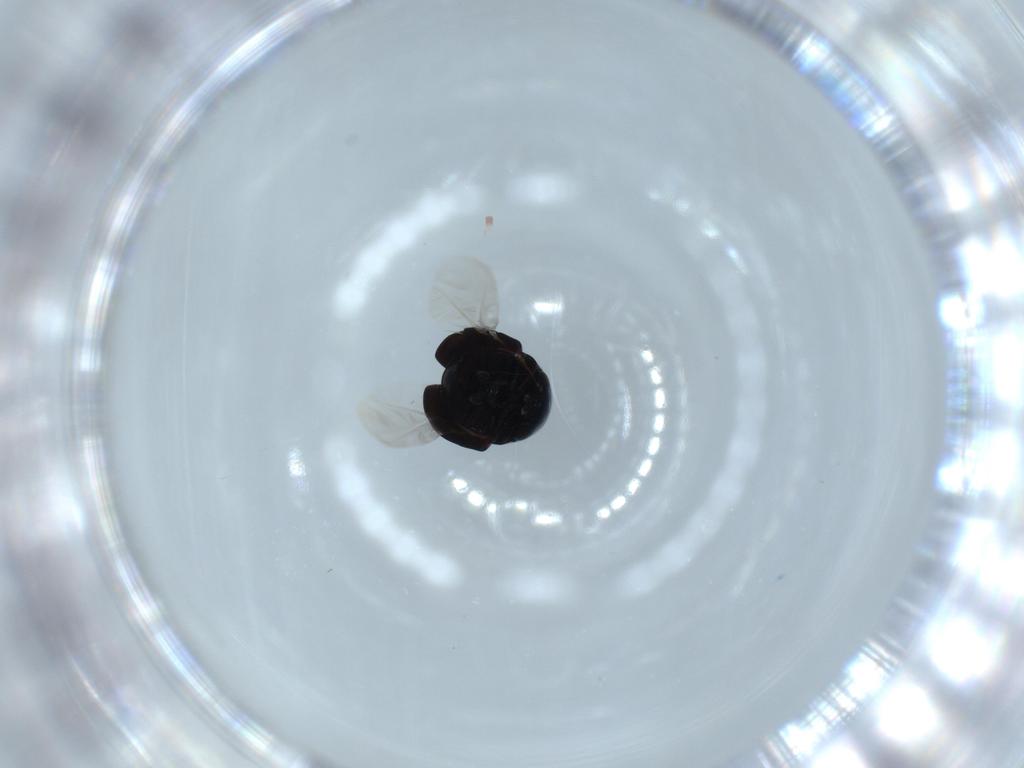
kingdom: Animalia
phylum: Arthropoda
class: Insecta
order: Coleoptera
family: Cybocephalidae
